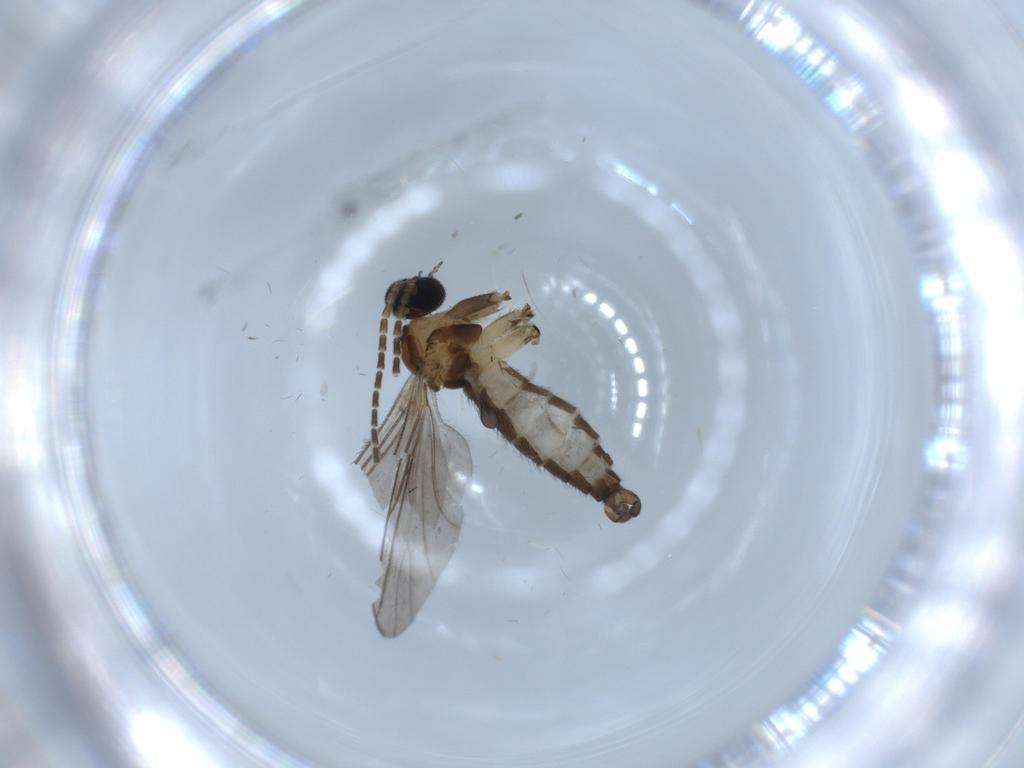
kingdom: Animalia
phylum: Arthropoda
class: Insecta
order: Diptera
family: Sciaridae
